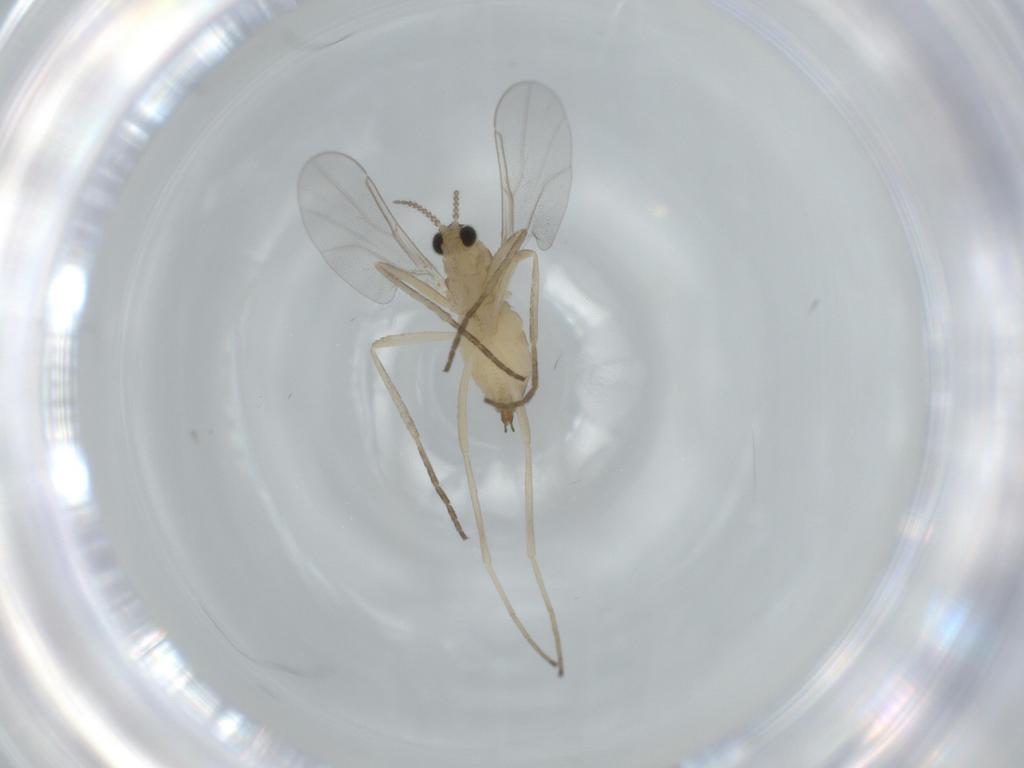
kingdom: Animalia
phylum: Arthropoda
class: Insecta
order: Diptera
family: Cecidomyiidae
